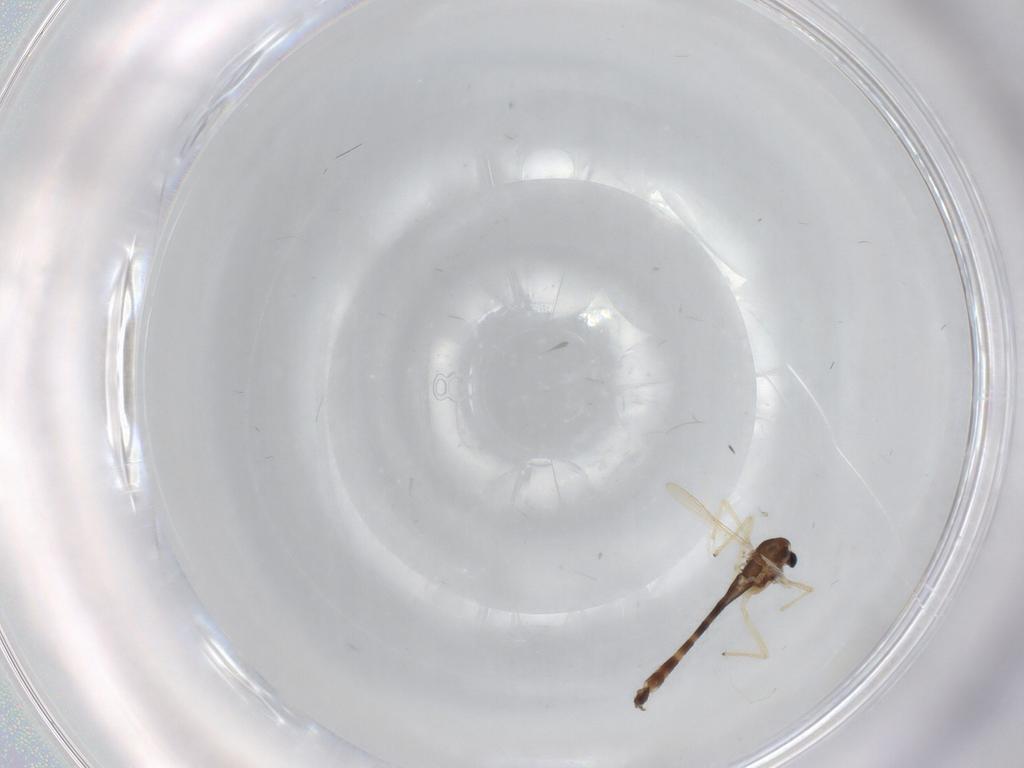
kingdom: Animalia
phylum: Arthropoda
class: Insecta
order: Diptera
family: Chironomidae
